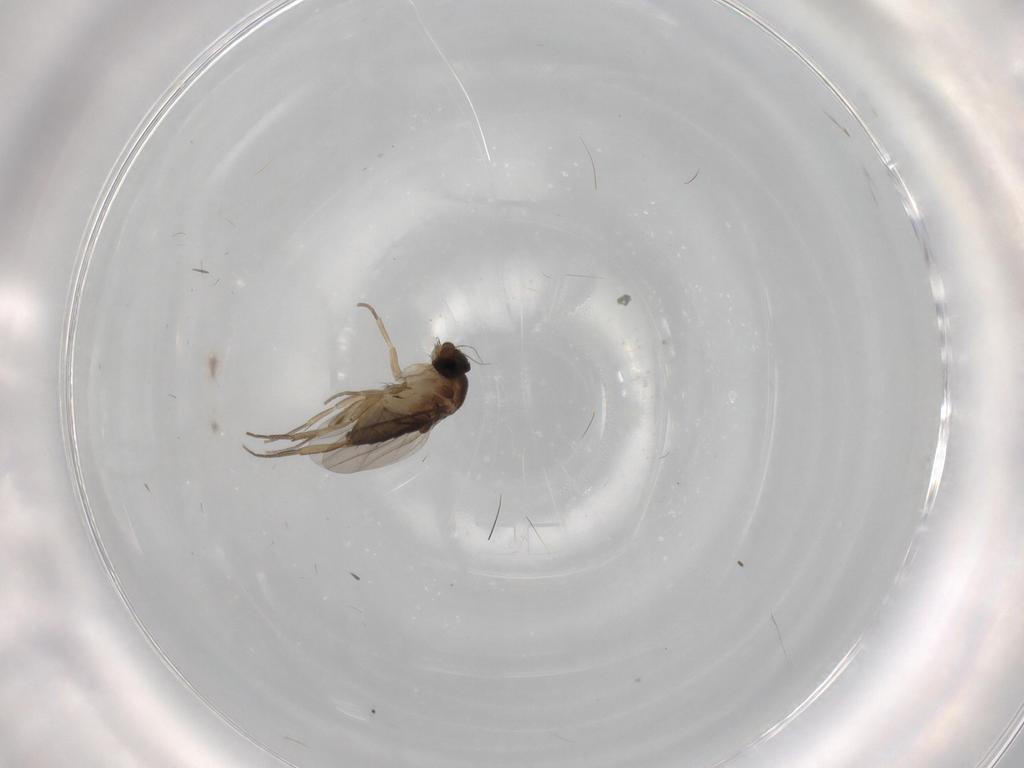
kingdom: Animalia
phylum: Arthropoda
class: Insecta
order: Diptera
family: Phoridae
